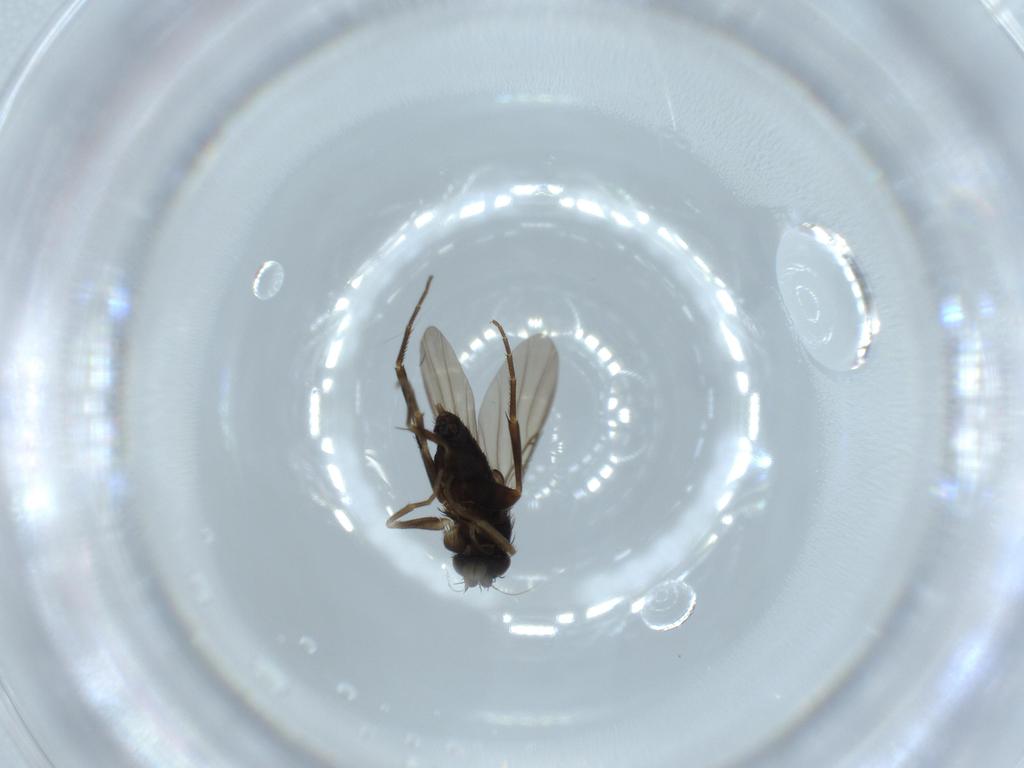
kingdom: Animalia
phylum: Arthropoda
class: Insecta
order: Diptera
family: Phoridae
